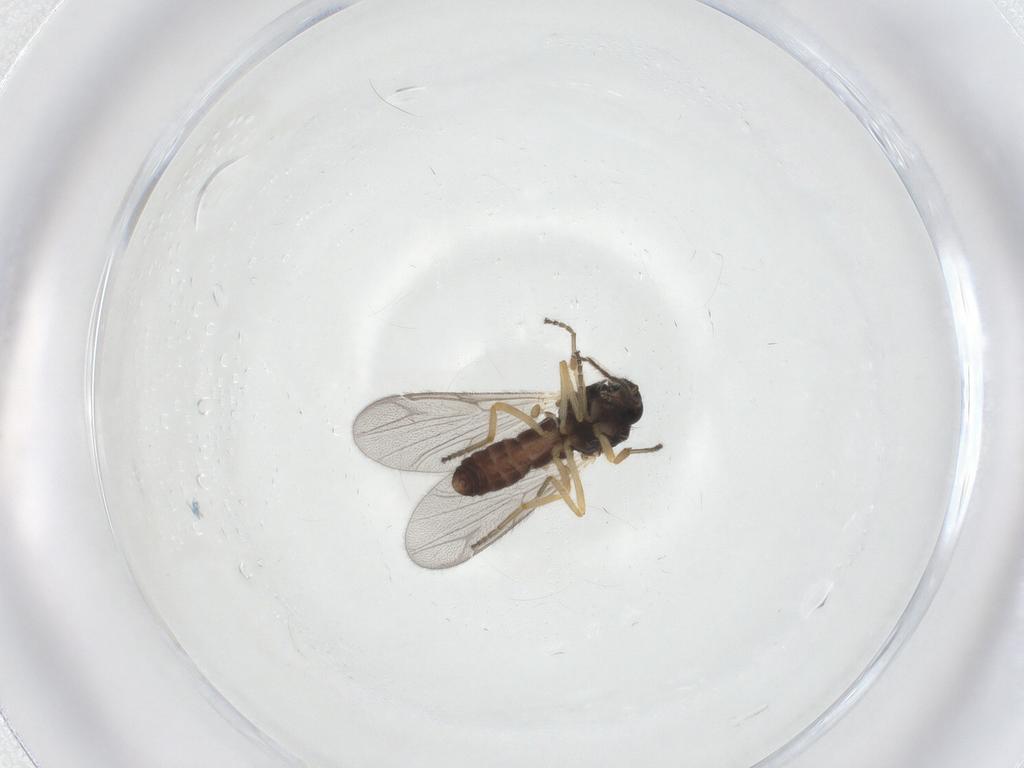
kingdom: Animalia
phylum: Arthropoda
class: Insecta
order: Diptera
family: Ceratopogonidae
